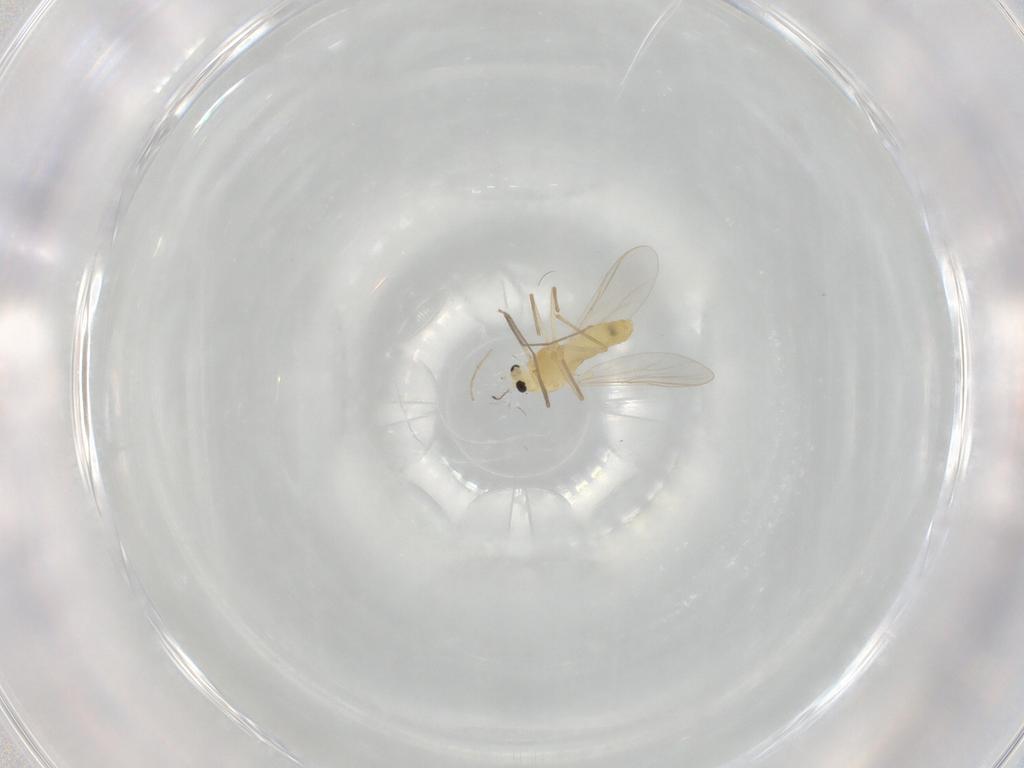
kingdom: Animalia
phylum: Arthropoda
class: Insecta
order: Diptera
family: Chironomidae
